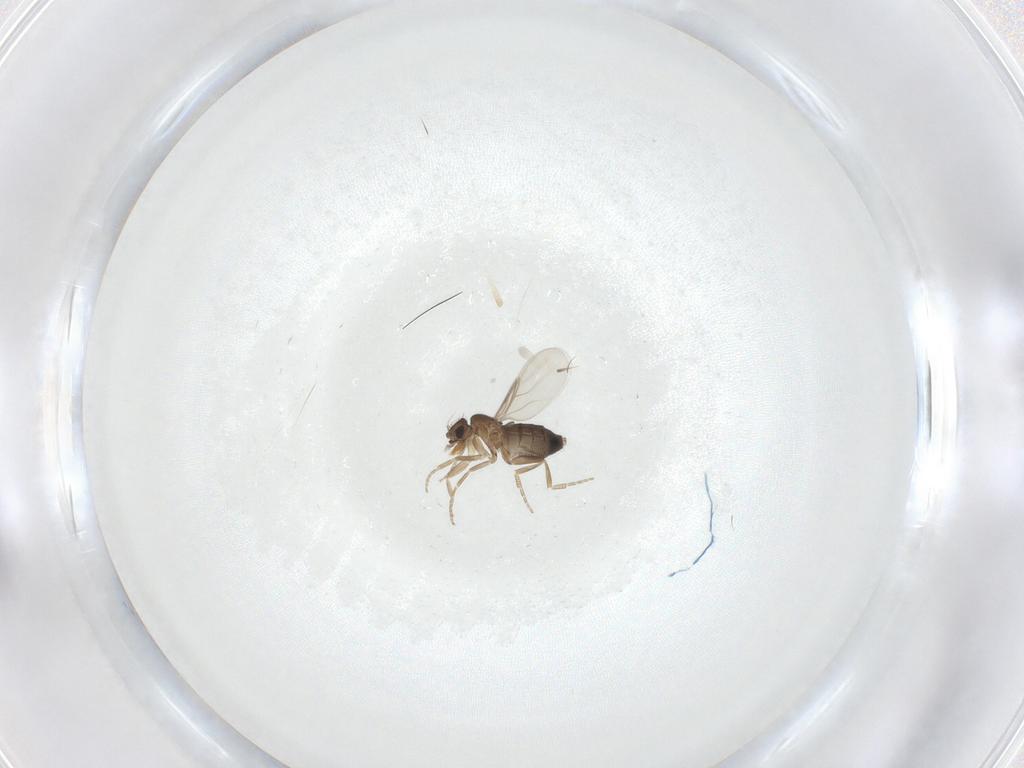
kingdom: Animalia
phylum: Arthropoda
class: Insecta
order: Diptera
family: Phoridae
